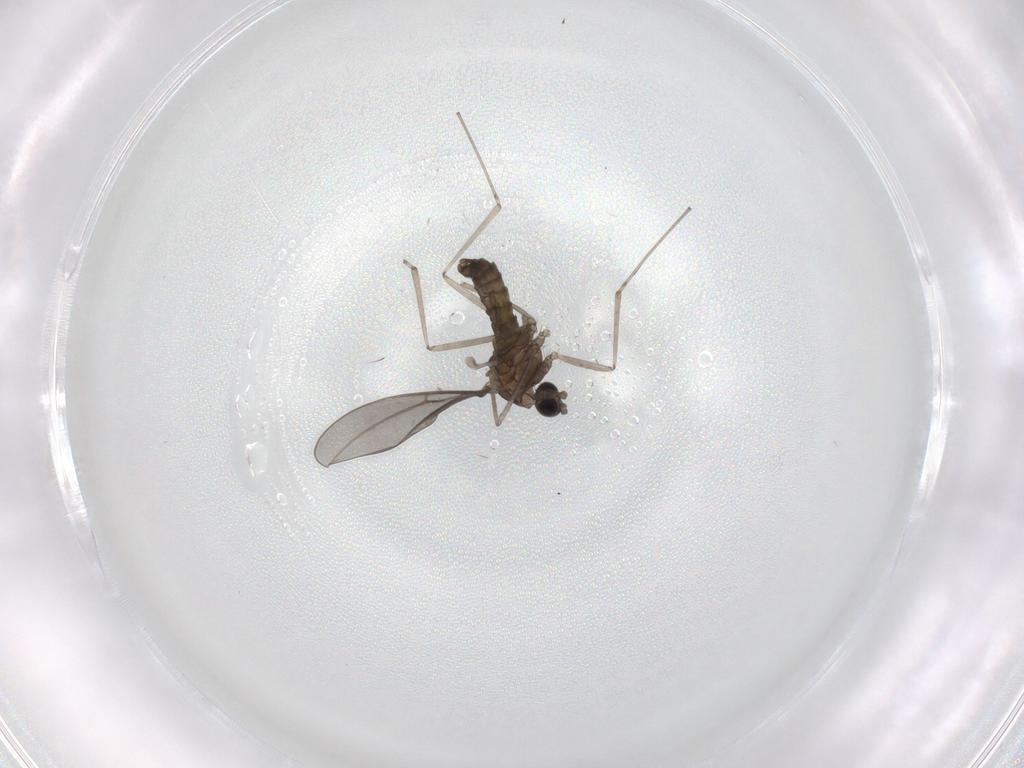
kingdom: Animalia
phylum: Arthropoda
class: Insecta
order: Diptera
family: Cecidomyiidae
